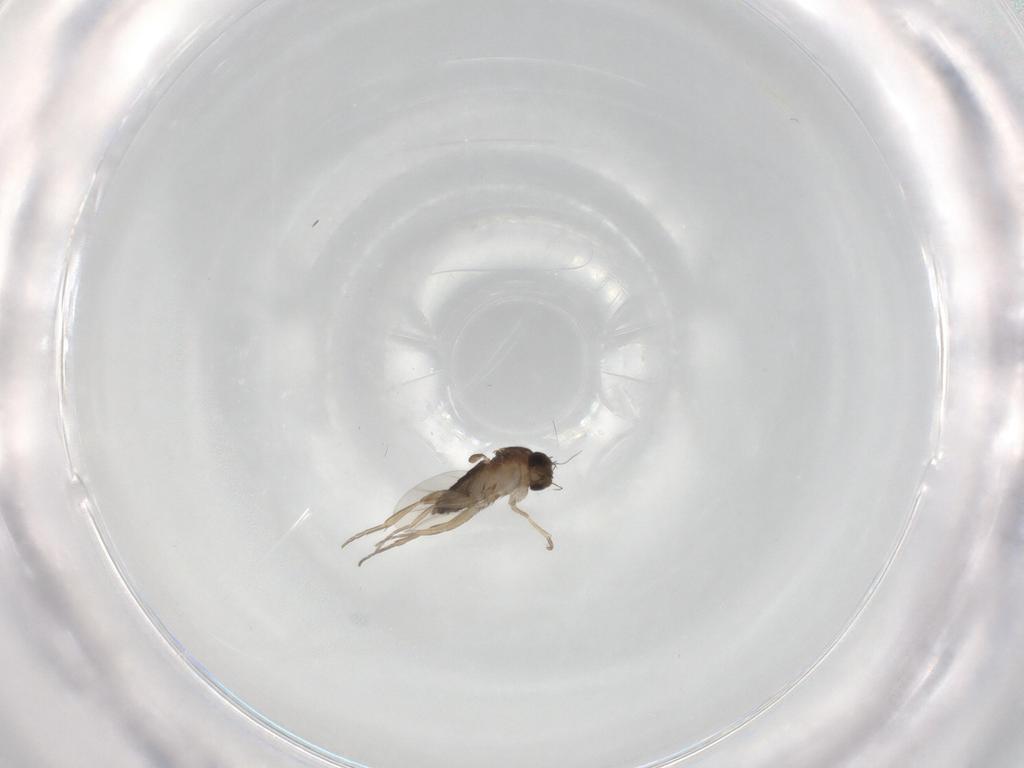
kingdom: Animalia
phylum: Arthropoda
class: Insecta
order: Diptera
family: Phoridae
